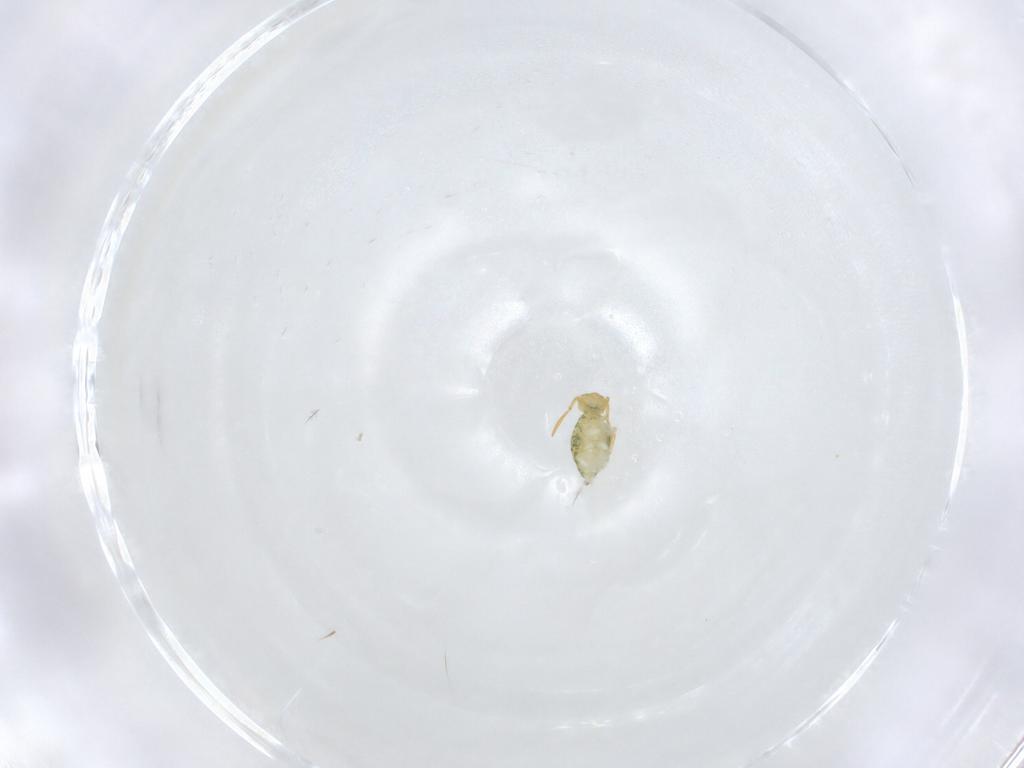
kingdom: Animalia
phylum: Arthropoda
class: Collembola
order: Symphypleona
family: Katiannidae
